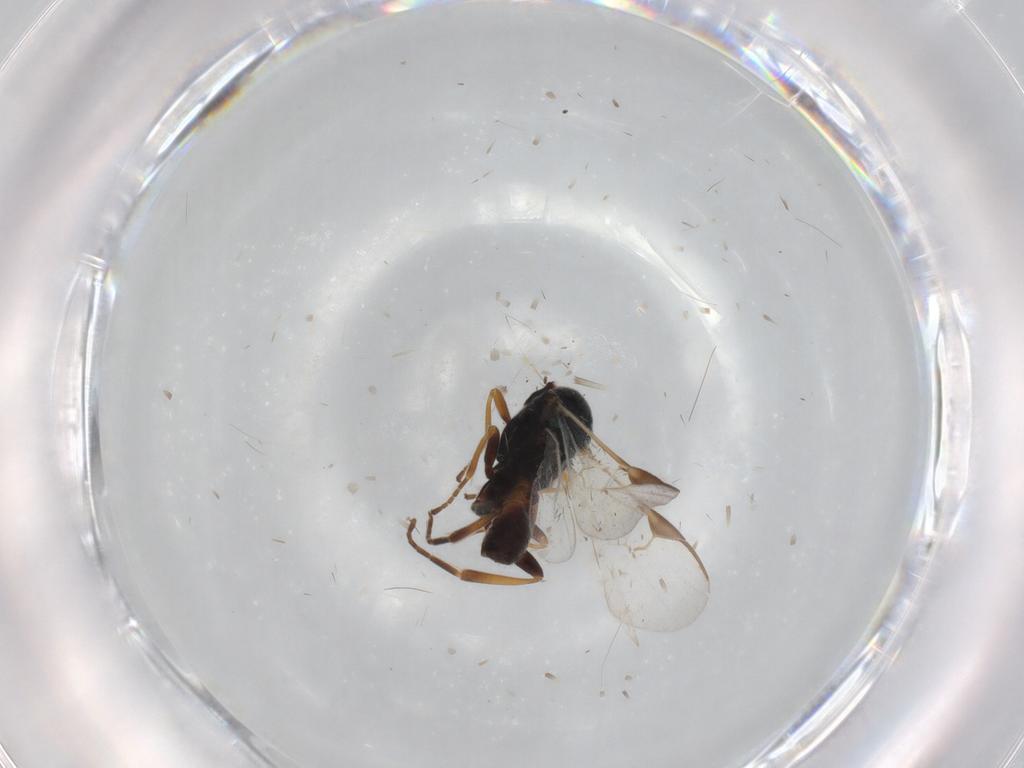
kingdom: Animalia
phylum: Arthropoda
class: Insecta
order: Hymenoptera
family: Braconidae
